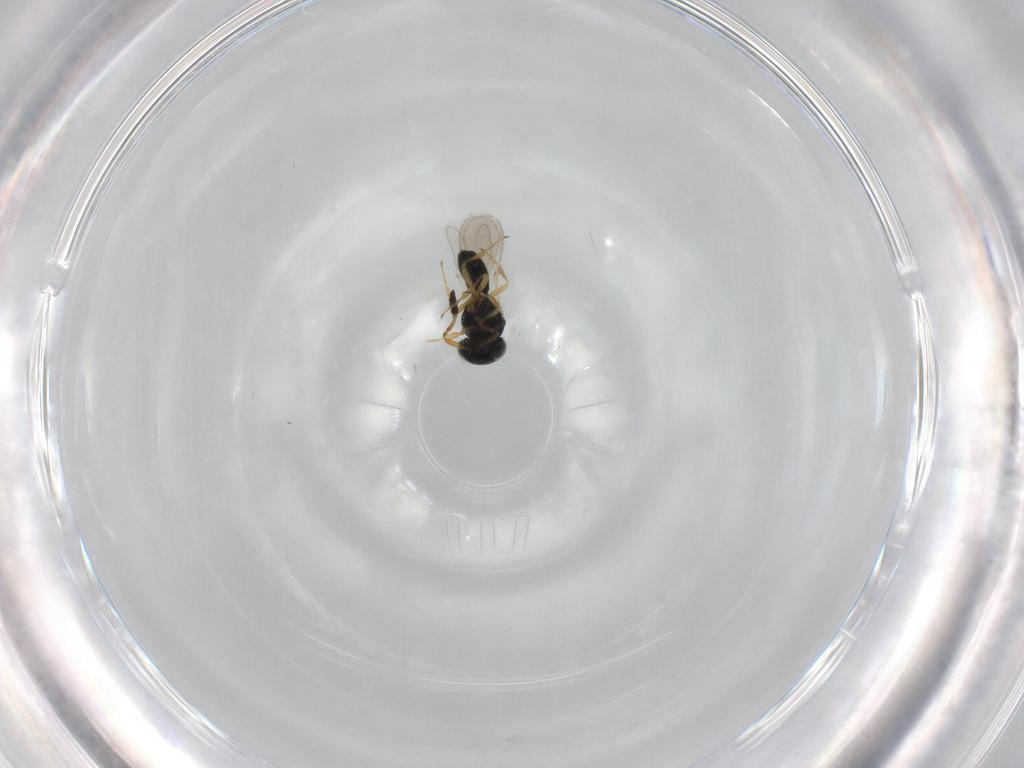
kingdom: Animalia
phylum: Arthropoda
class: Insecta
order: Hymenoptera
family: Scelionidae
